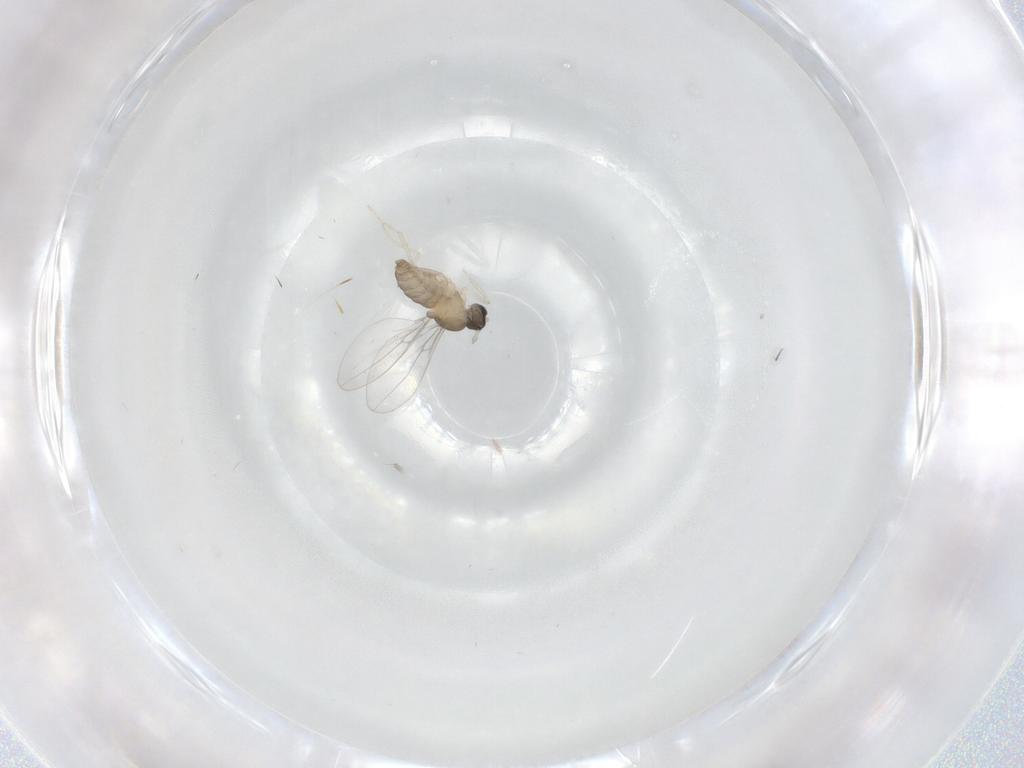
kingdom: Animalia
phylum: Arthropoda
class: Insecta
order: Diptera
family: Cecidomyiidae
